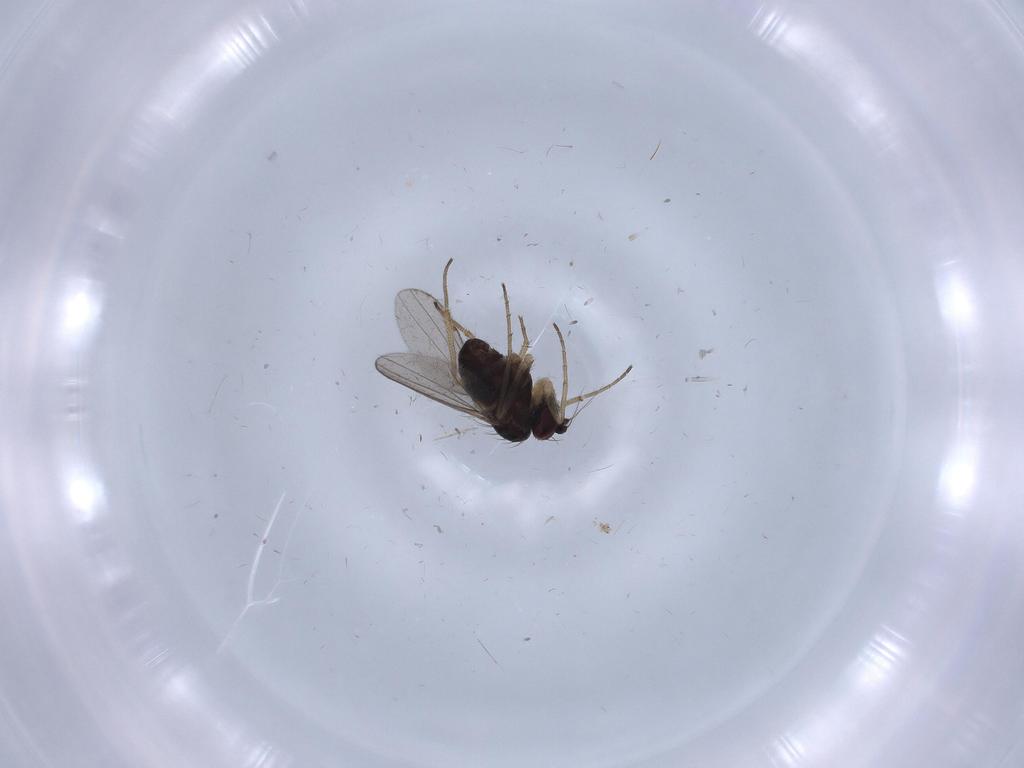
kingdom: Animalia
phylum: Arthropoda
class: Insecta
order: Diptera
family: Dolichopodidae
